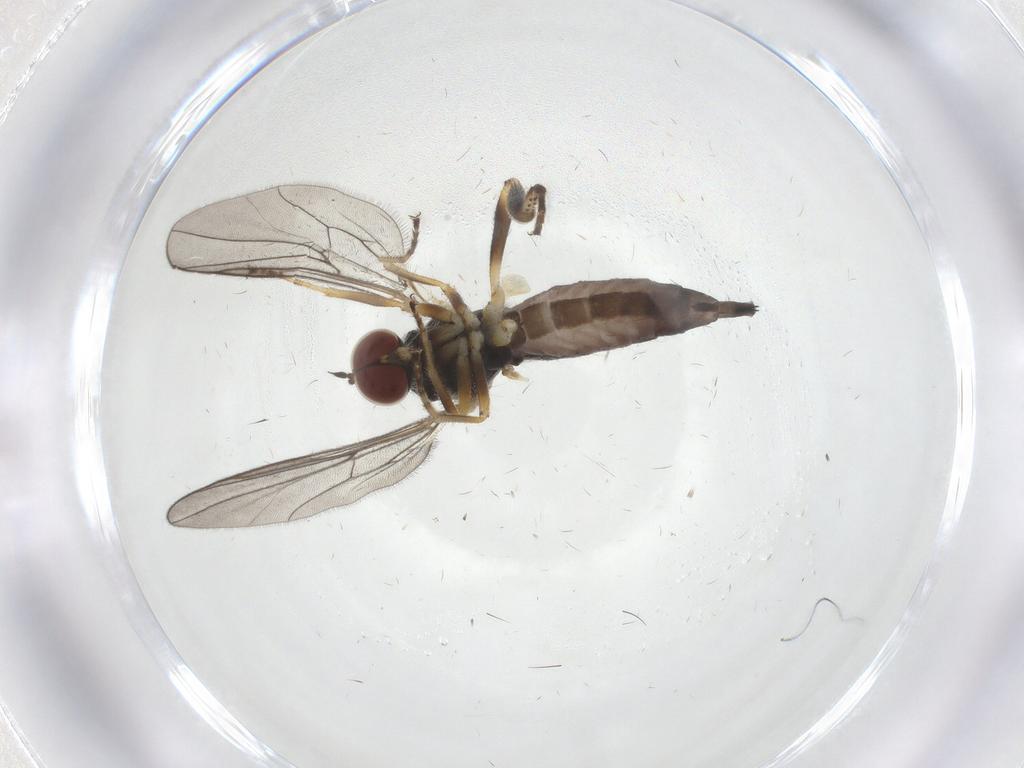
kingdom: Animalia
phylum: Arthropoda
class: Insecta
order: Diptera
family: Hybotidae
